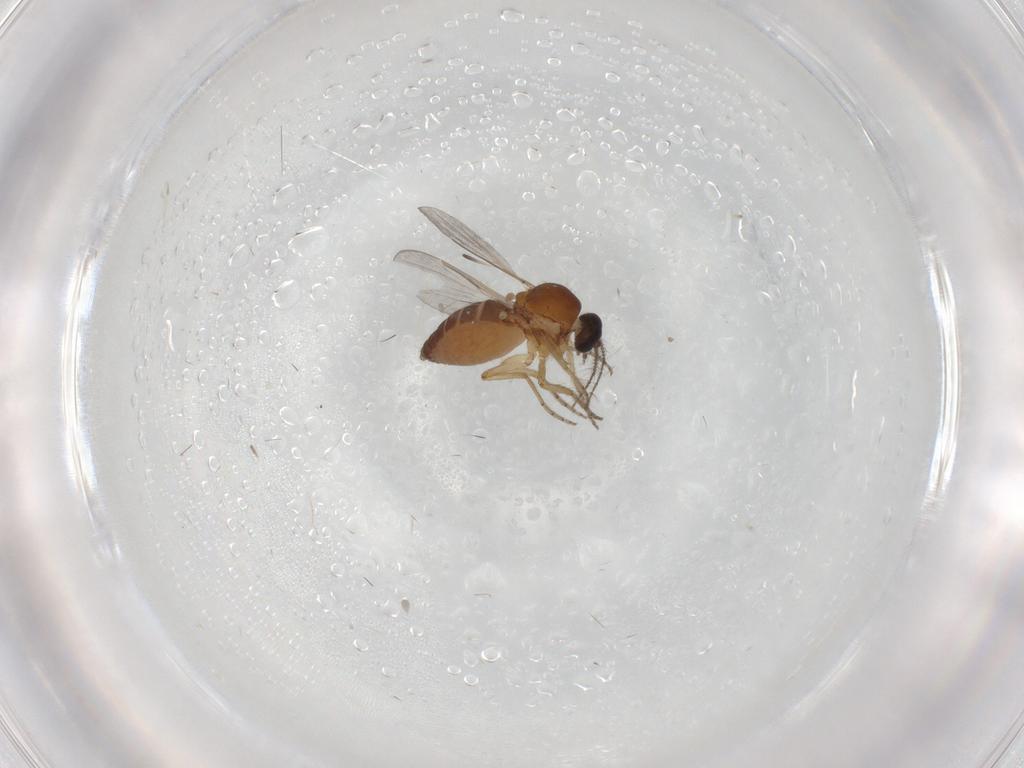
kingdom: Animalia
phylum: Arthropoda
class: Insecta
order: Diptera
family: Ceratopogonidae
